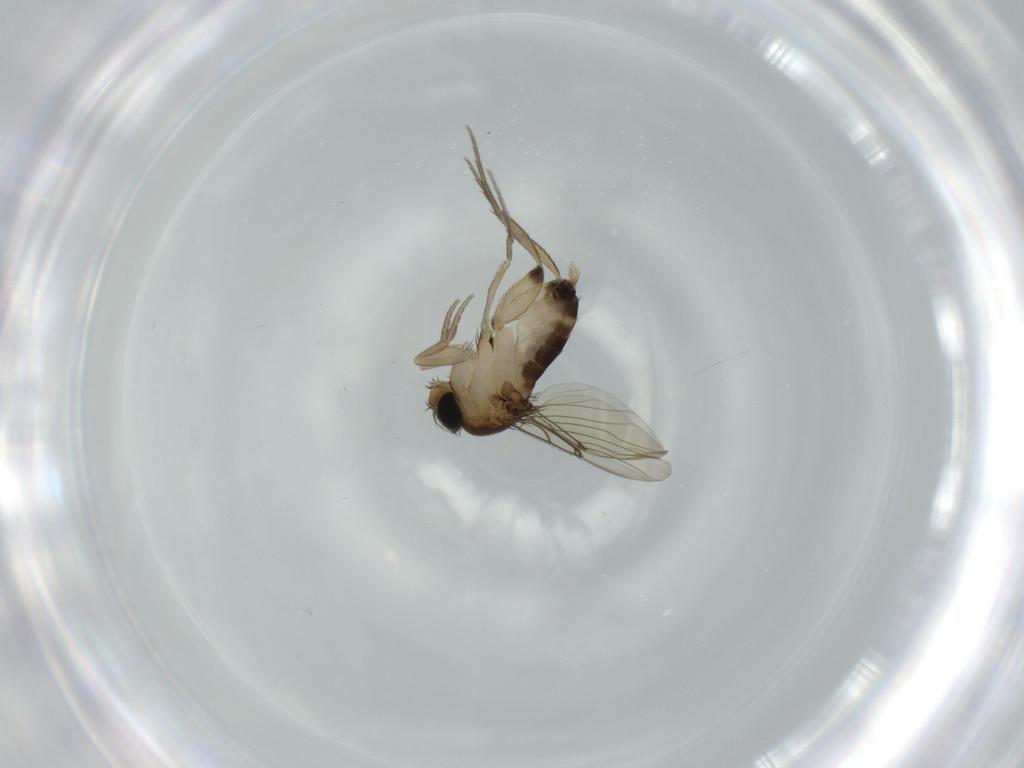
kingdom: Animalia
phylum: Arthropoda
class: Insecta
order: Diptera
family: Phoridae
